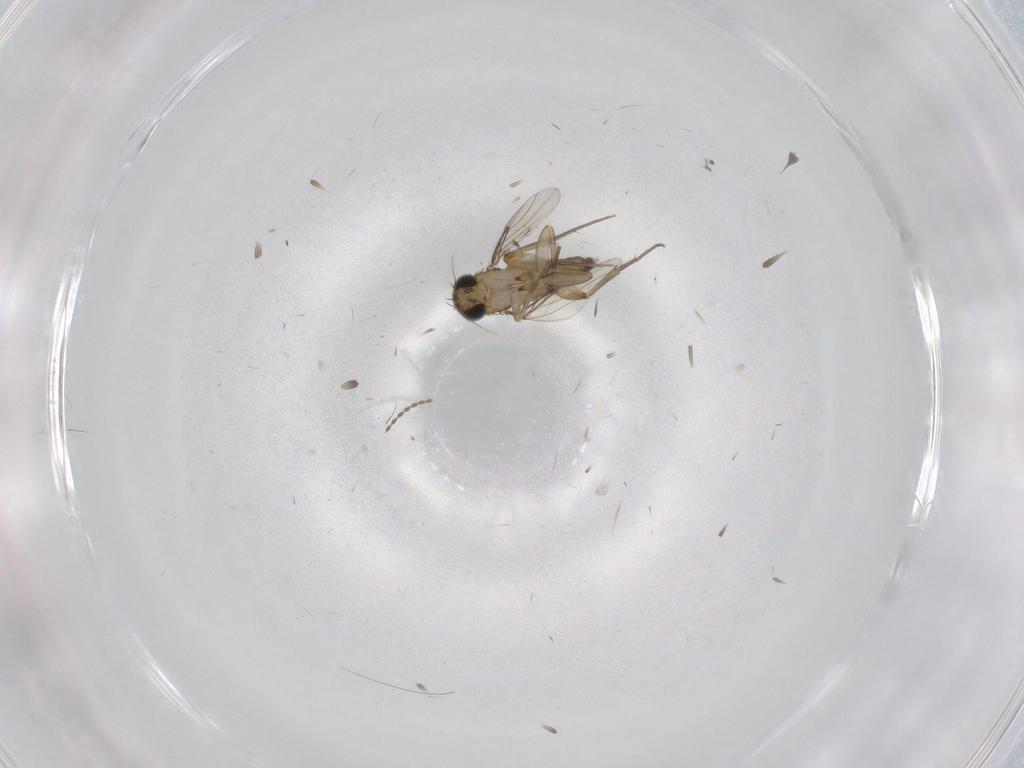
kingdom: Animalia
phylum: Arthropoda
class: Insecta
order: Diptera
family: Phoridae
